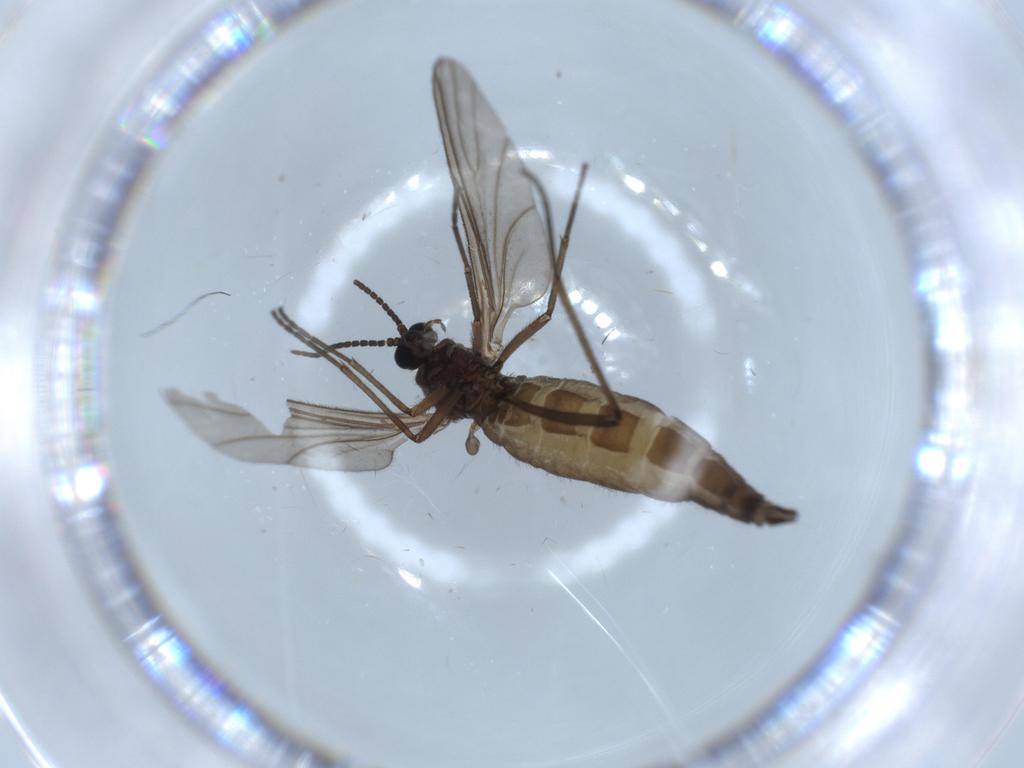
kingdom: Animalia
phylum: Arthropoda
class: Insecta
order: Diptera
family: Sciaridae
